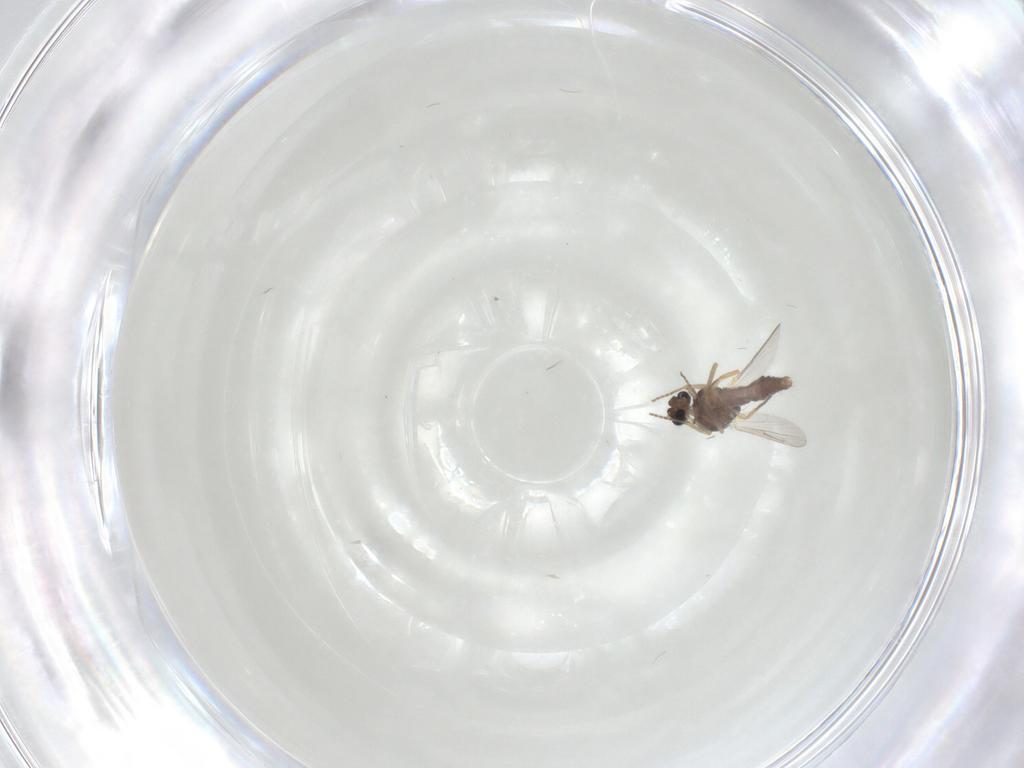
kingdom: Animalia
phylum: Arthropoda
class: Insecta
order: Diptera
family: Ceratopogonidae
